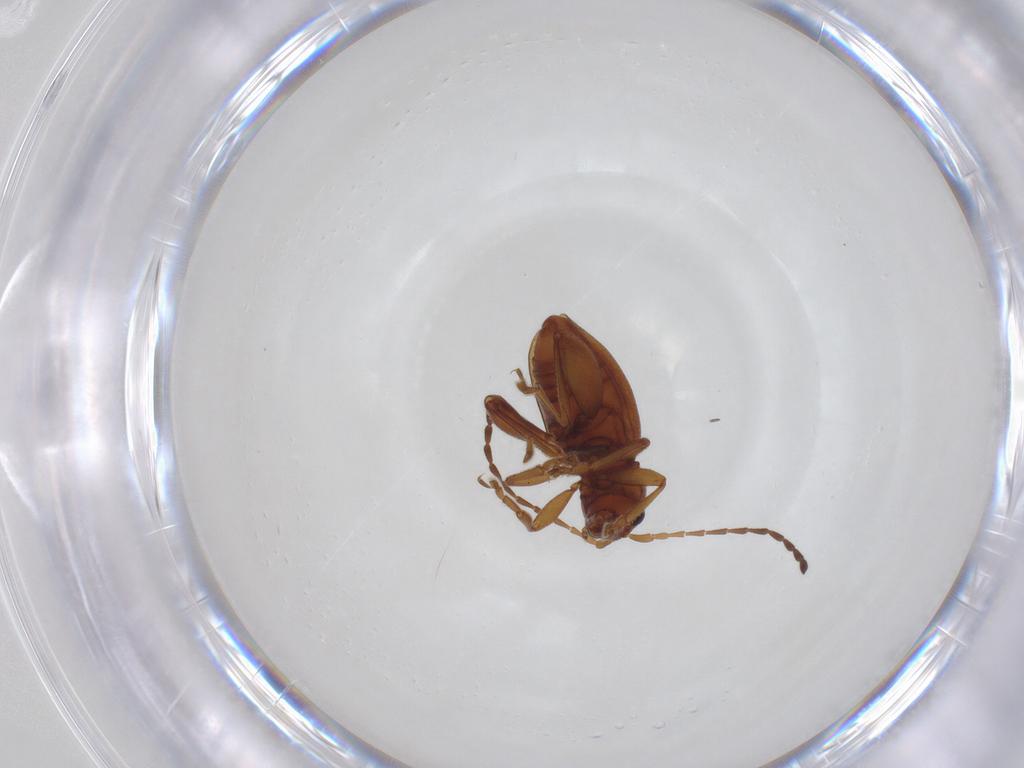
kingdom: Animalia
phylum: Arthropoda
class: Insecta
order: Coleoptera
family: Chrysomelidae
